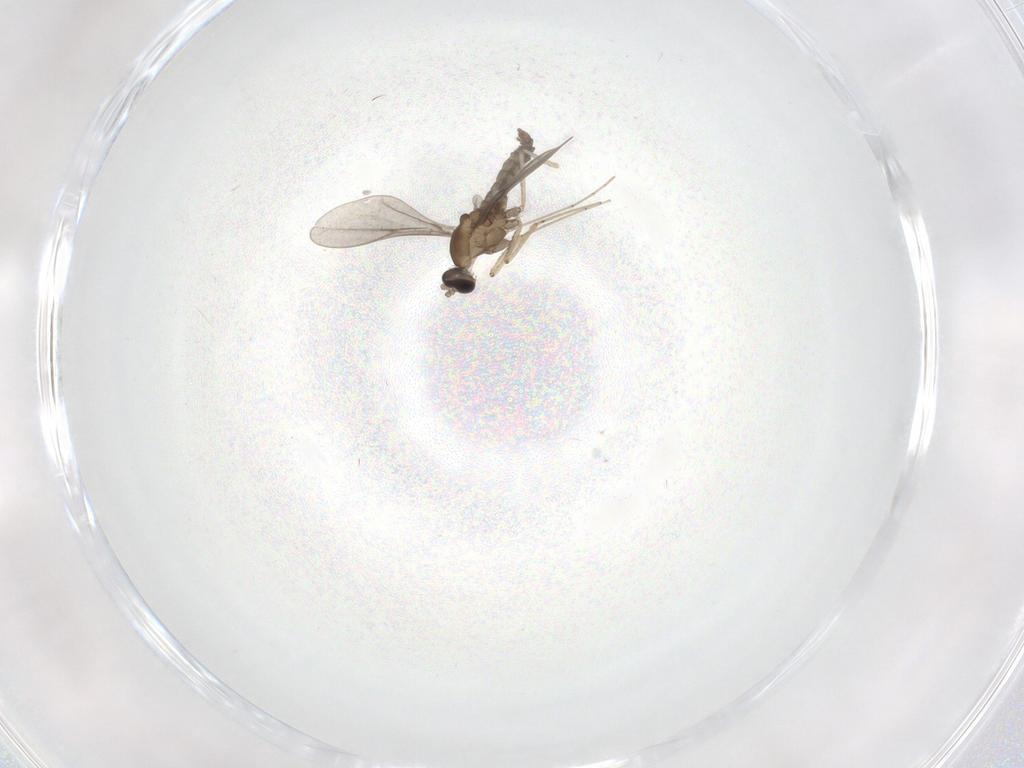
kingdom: Animalia
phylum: Arthropoda
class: Insecta
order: Diptera
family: Cecidomyiidae
